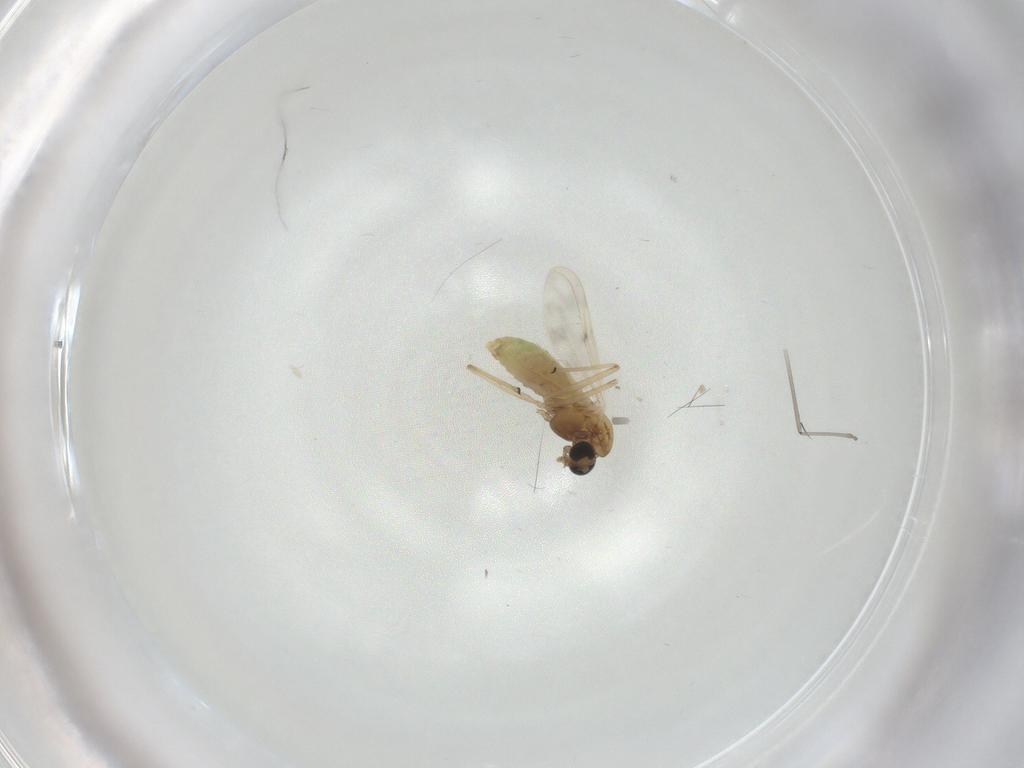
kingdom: Animalia
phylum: Arthropoda
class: Insecta
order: Diptera
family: Chironomidae
